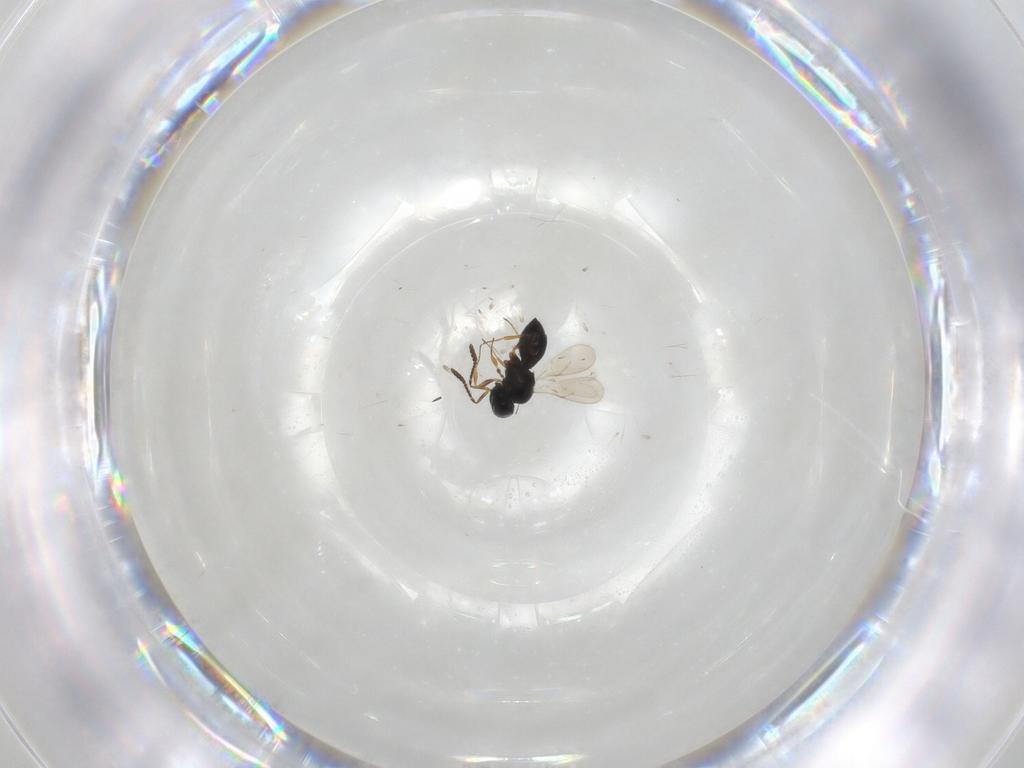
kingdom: Animalia
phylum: Arthropoda
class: Insecta
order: Hymenoptera
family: Scelionidae
